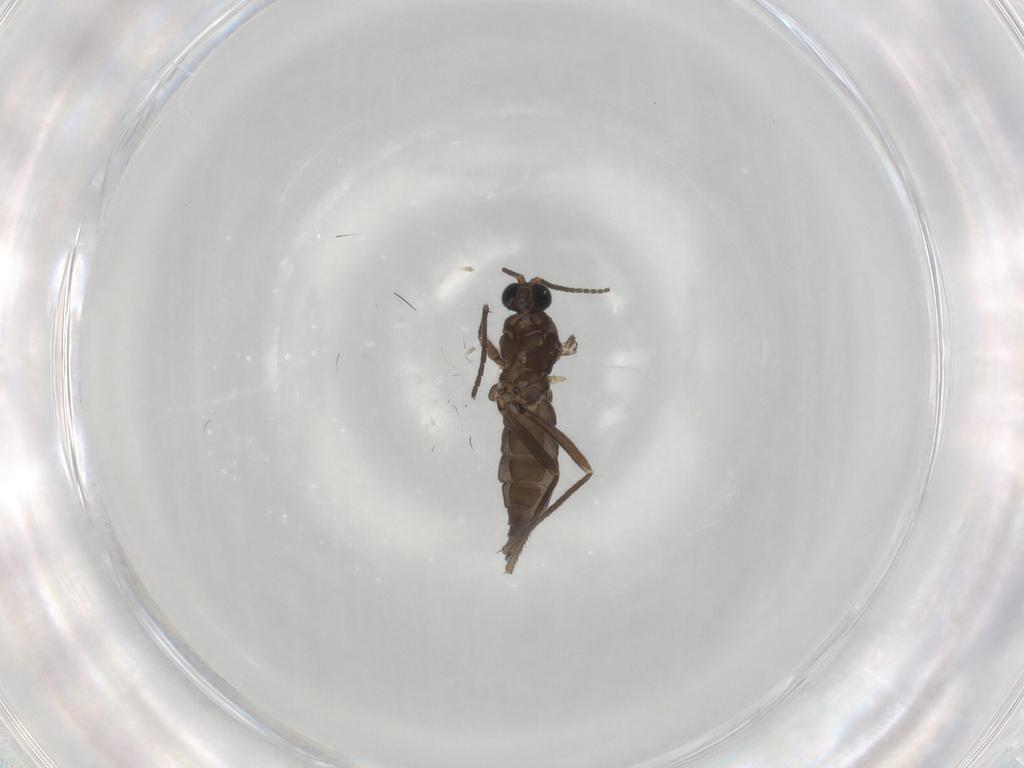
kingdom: Animalia
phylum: Arthropoda
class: Insecta
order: Diptera
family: Sciaridae
